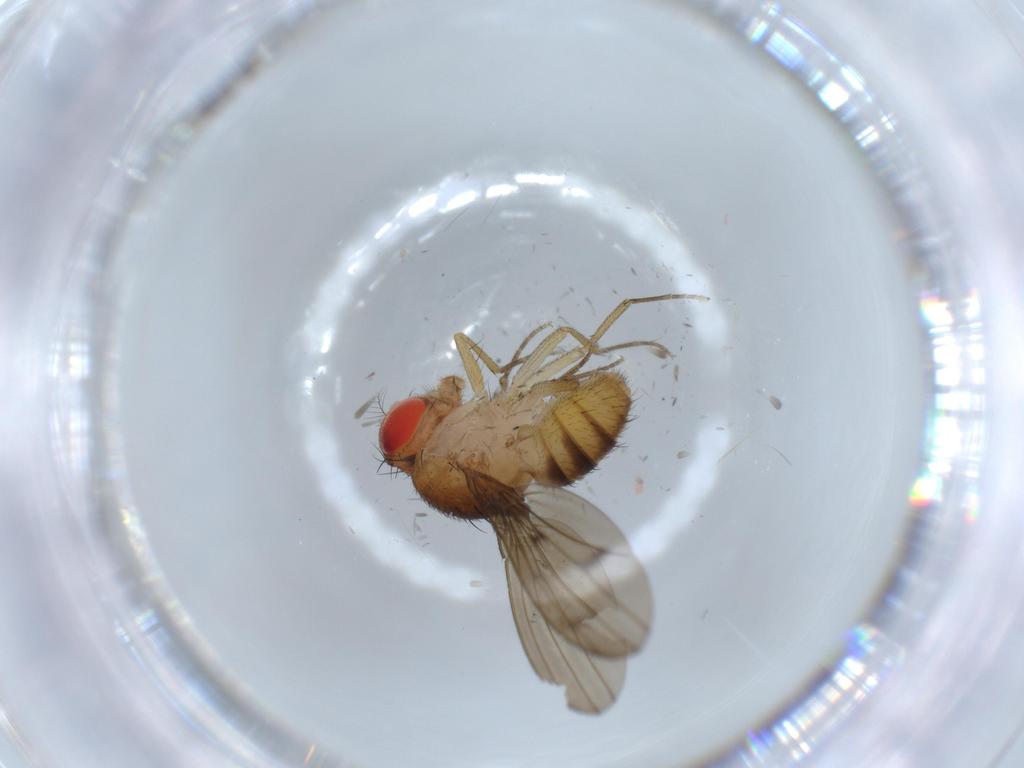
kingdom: Animalia
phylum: Arthropoda
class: Insecta
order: Diptera
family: Drosophilidae
